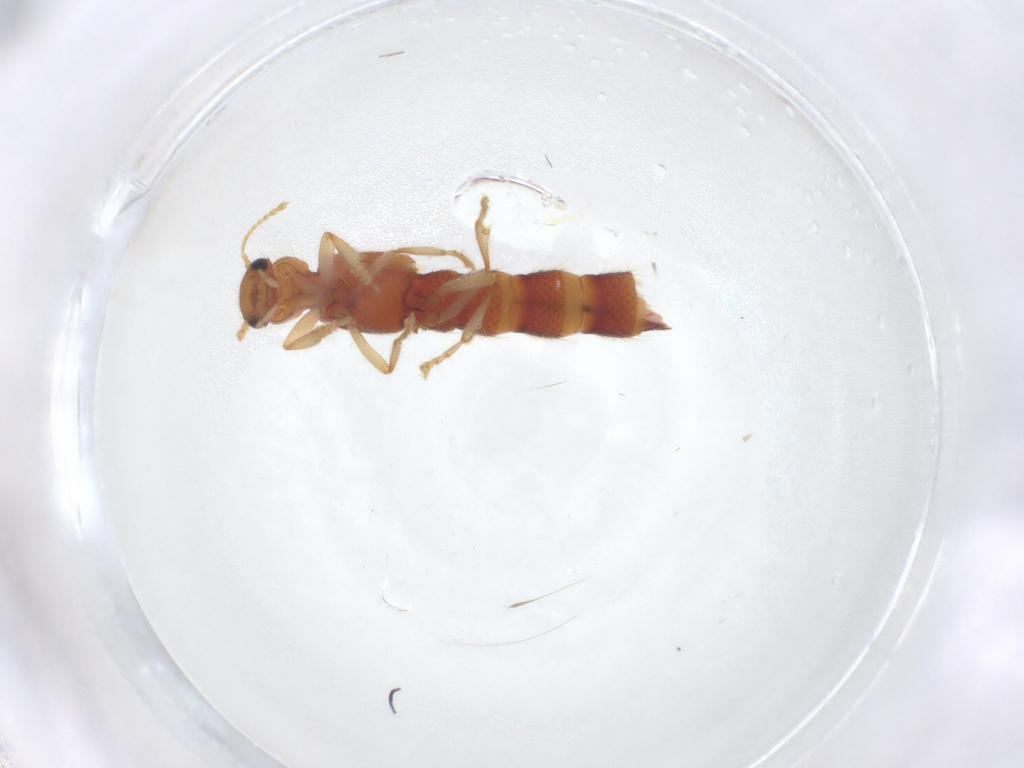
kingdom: Animalia
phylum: Arthropoda
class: Insecta
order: Coleoptera
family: Staphylinidae
